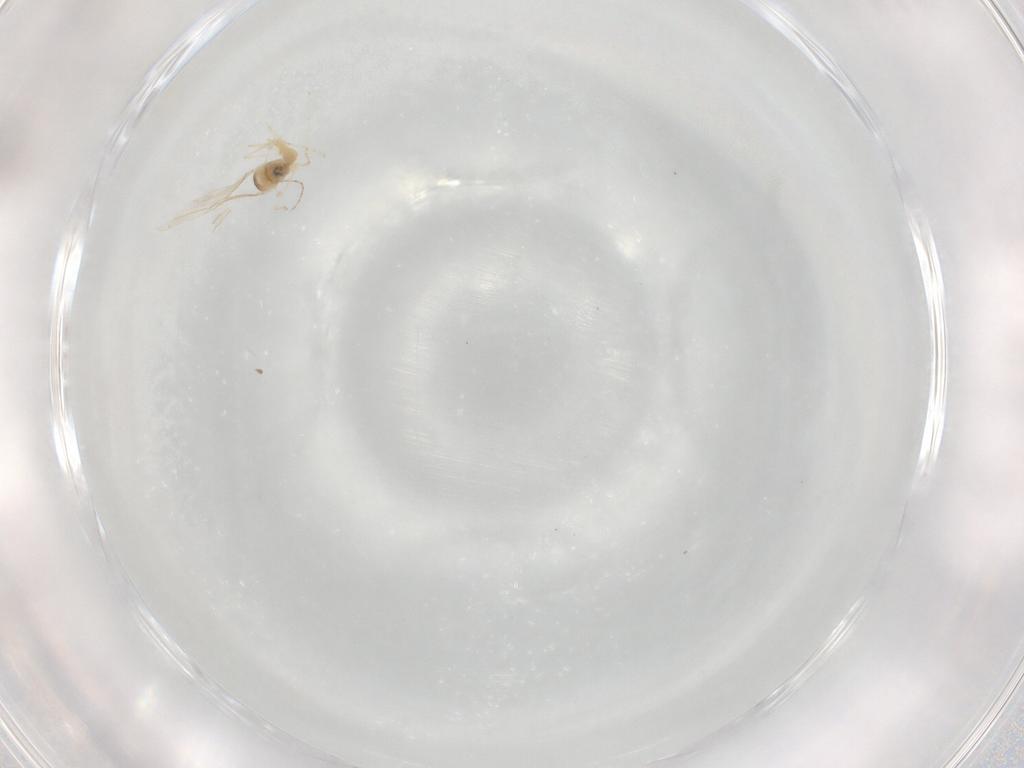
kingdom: Animalia
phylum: Arthropoda
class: Insecta
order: Diptera
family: Cecidomyiidae
